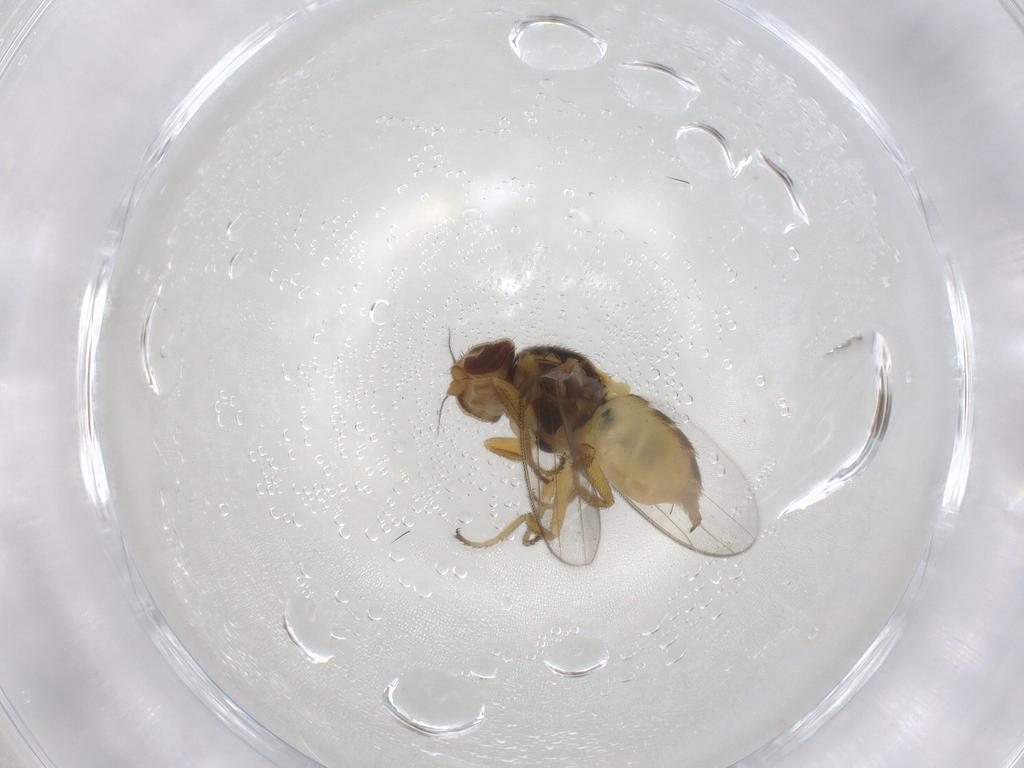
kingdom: Animalia
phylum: Arthropoda
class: Insecta
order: Diptera
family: Chloropidae
